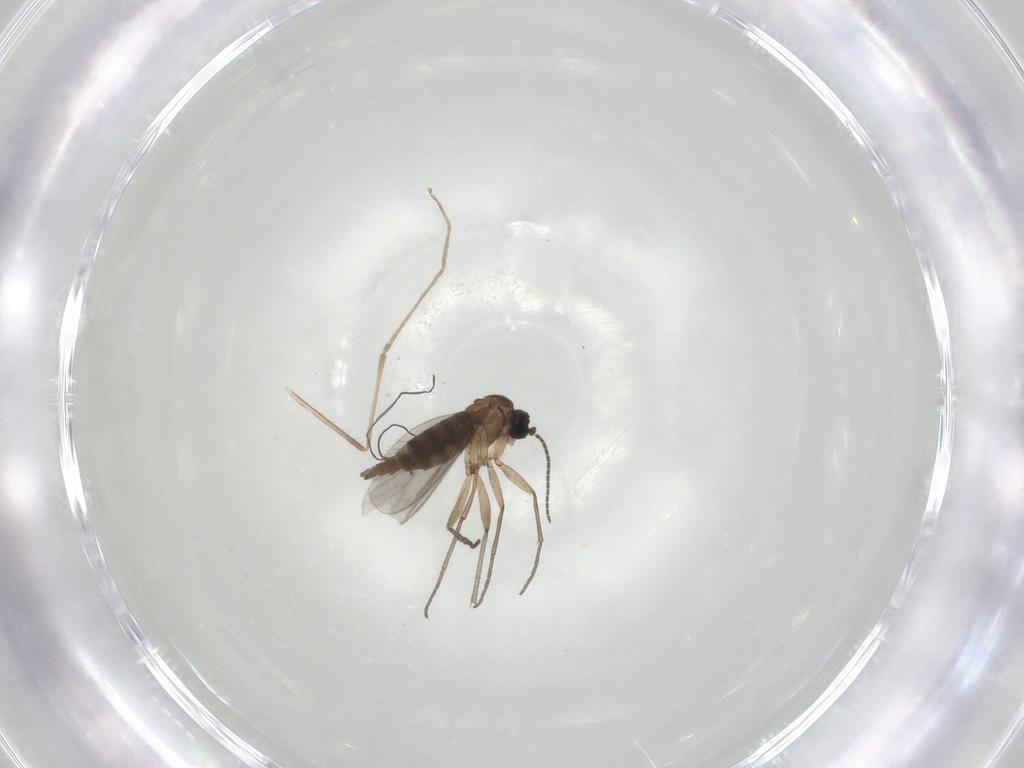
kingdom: Animalia
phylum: Arthropoda
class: Insecta
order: Diptera
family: Sciaridae
